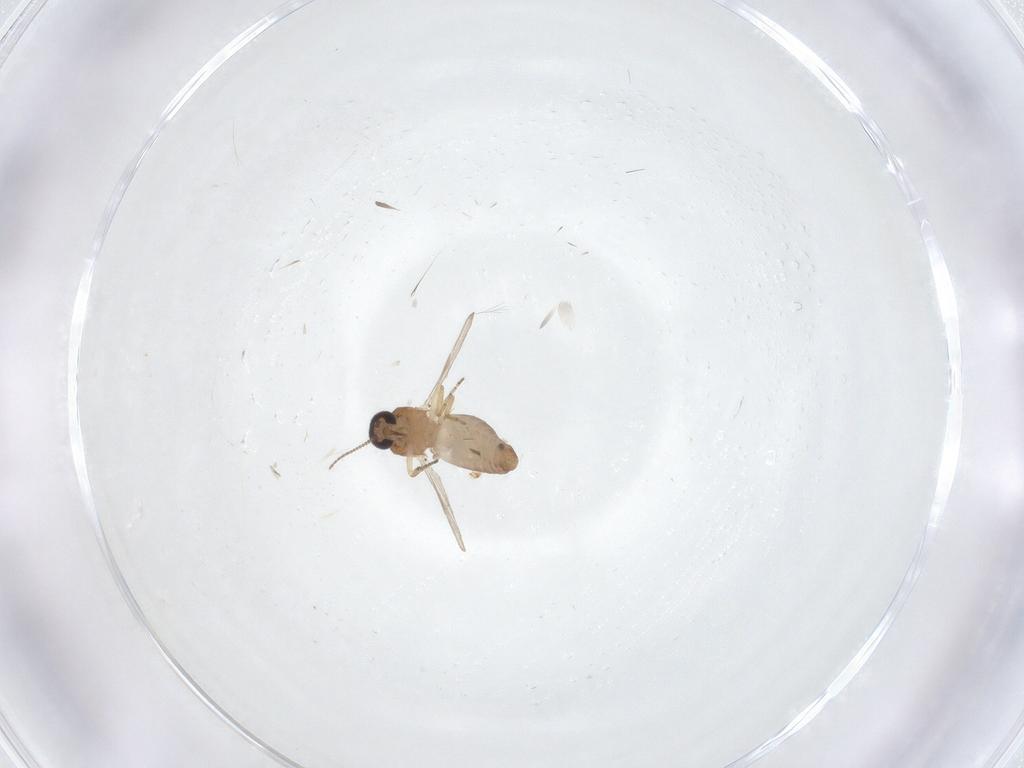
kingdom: Animalia
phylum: Arthropoda
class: Insecta
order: Diptera
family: Ceratopogonidae
